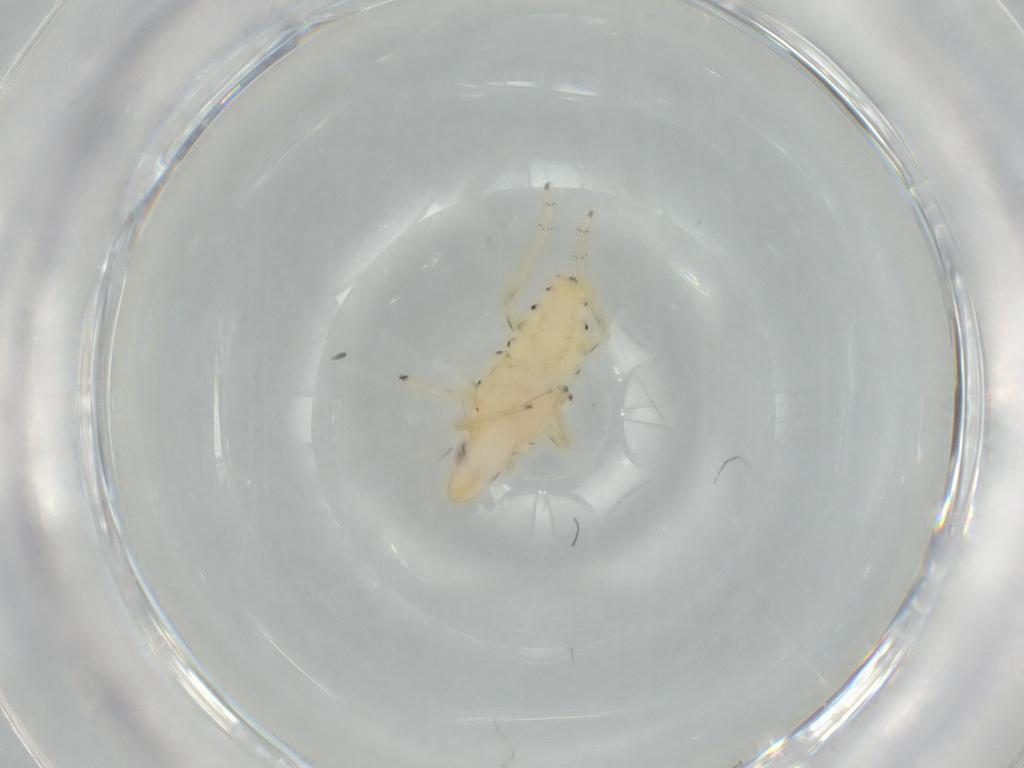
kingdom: Animalia
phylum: Arthropoda
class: Insecta
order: Hemiptera
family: Tropiduchidae
